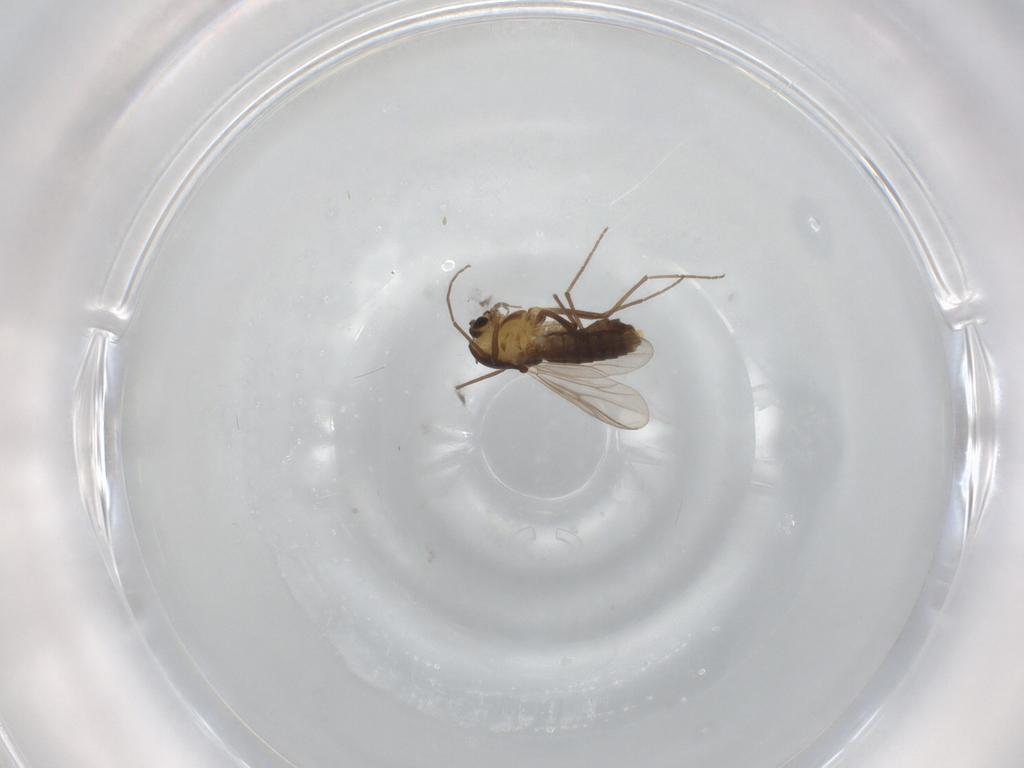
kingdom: Animalia
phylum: Arthropoda
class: Insecta
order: Diptera
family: Chironomidae
